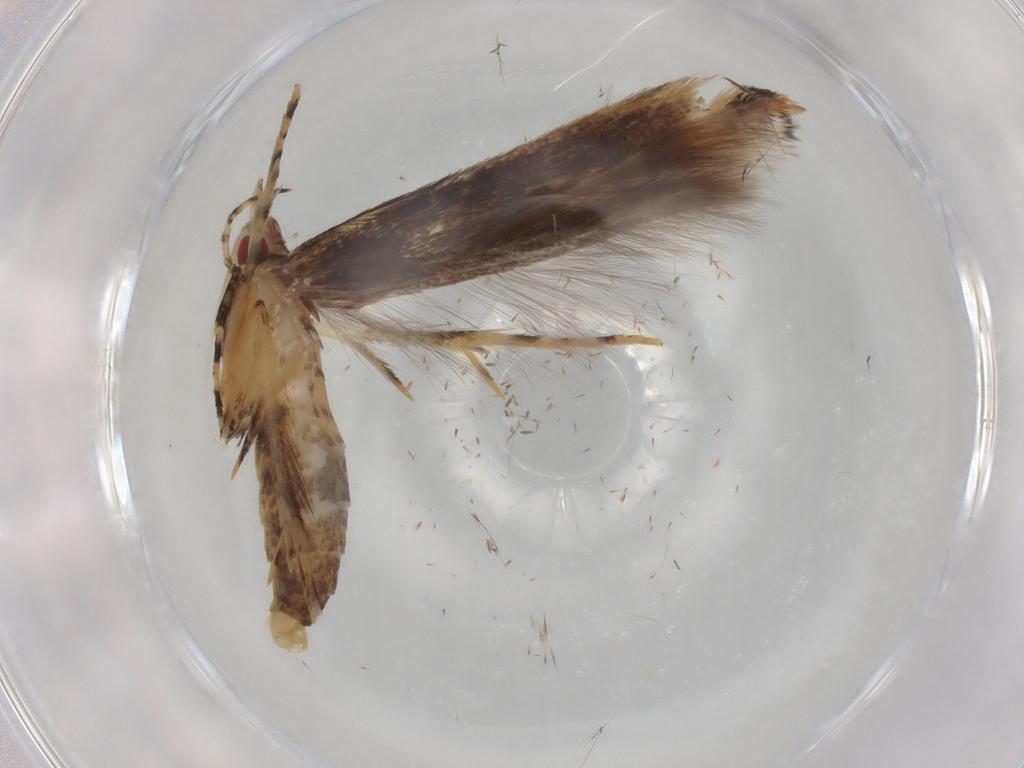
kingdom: Animalia
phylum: Arthropoda
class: Insecta
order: Lepidoptera
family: Cosmopterigidae
